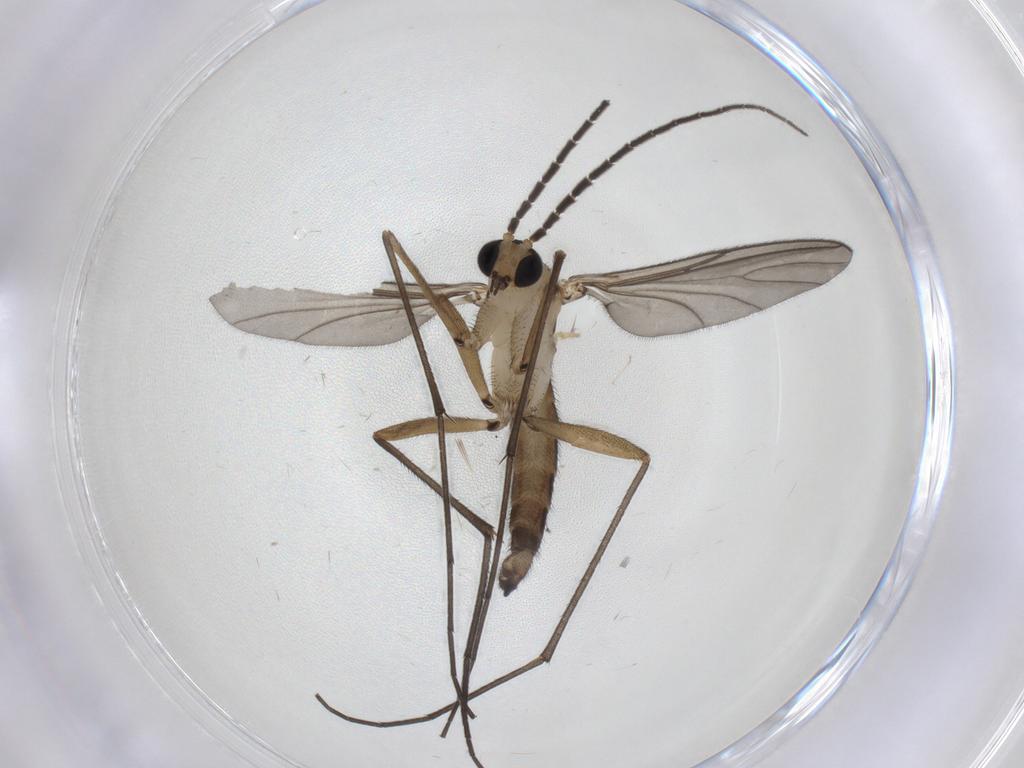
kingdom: Animalia
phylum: Arthropoda
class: Insecta
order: Diptera
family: Sciaridae
